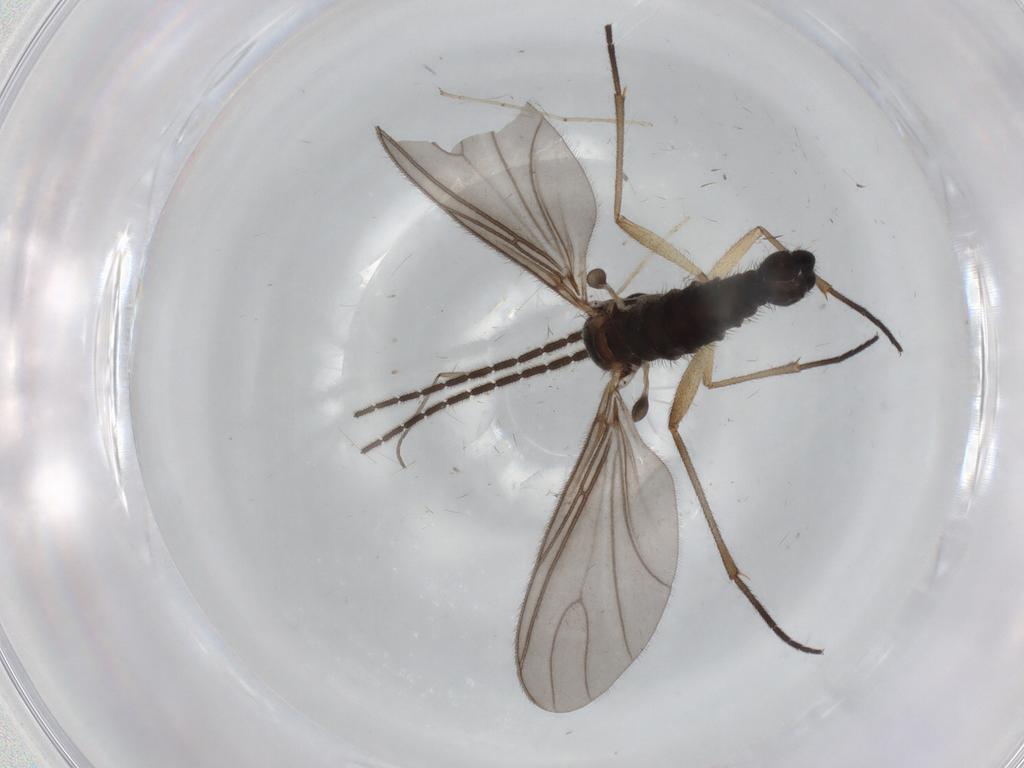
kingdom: Animalia
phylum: Arthropoda
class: Insecta
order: Diptera
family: Sciaridae
